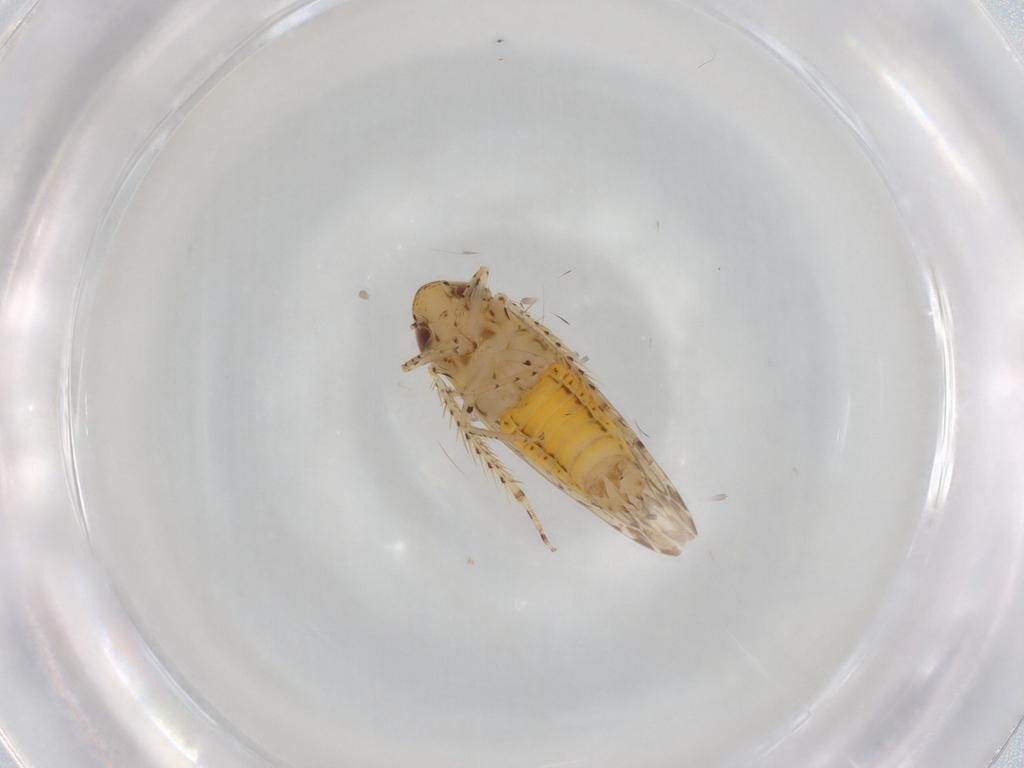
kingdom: Animalia
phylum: Arthropoda
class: Insecta
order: Hemiptera
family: Cicadellidae
